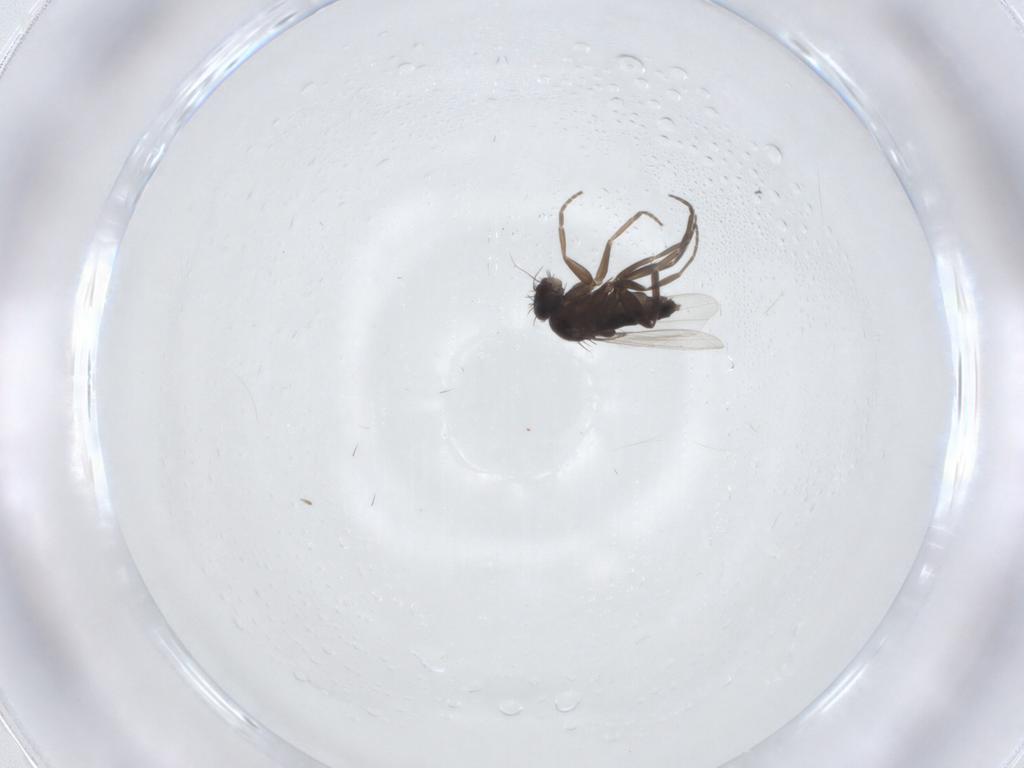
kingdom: Animalia
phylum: Arthropoda
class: Insecta
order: Diptera
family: Phoridae
